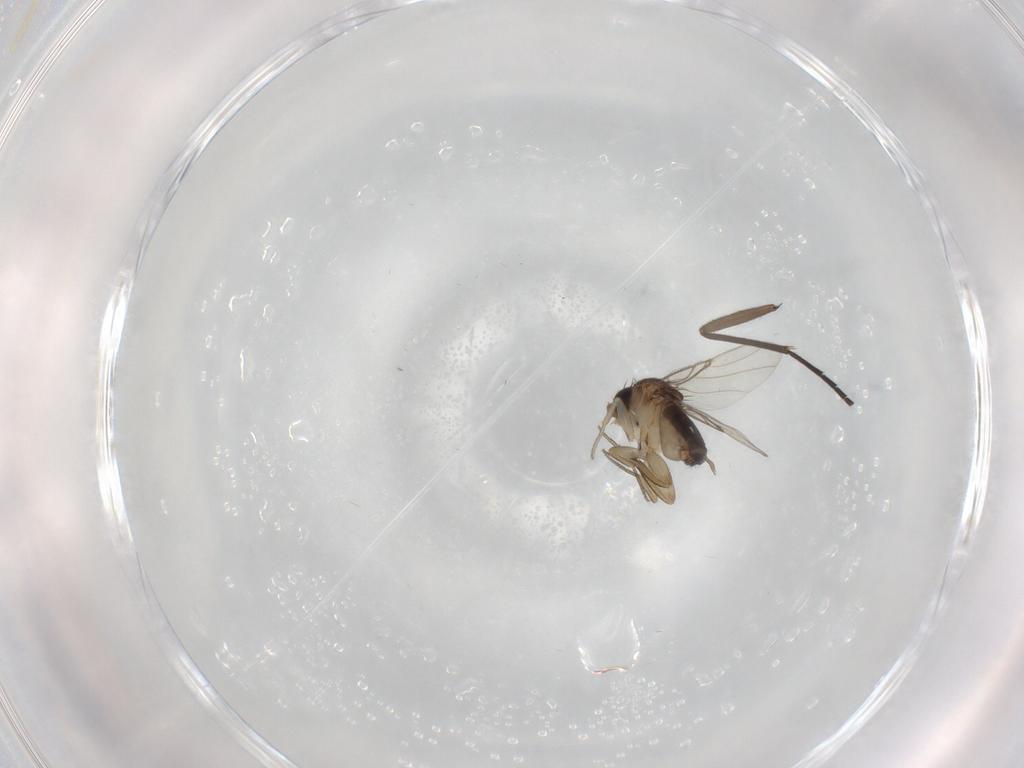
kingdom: Animalia
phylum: Arthropoda
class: Insecta
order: Diptera
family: Sciaridae
